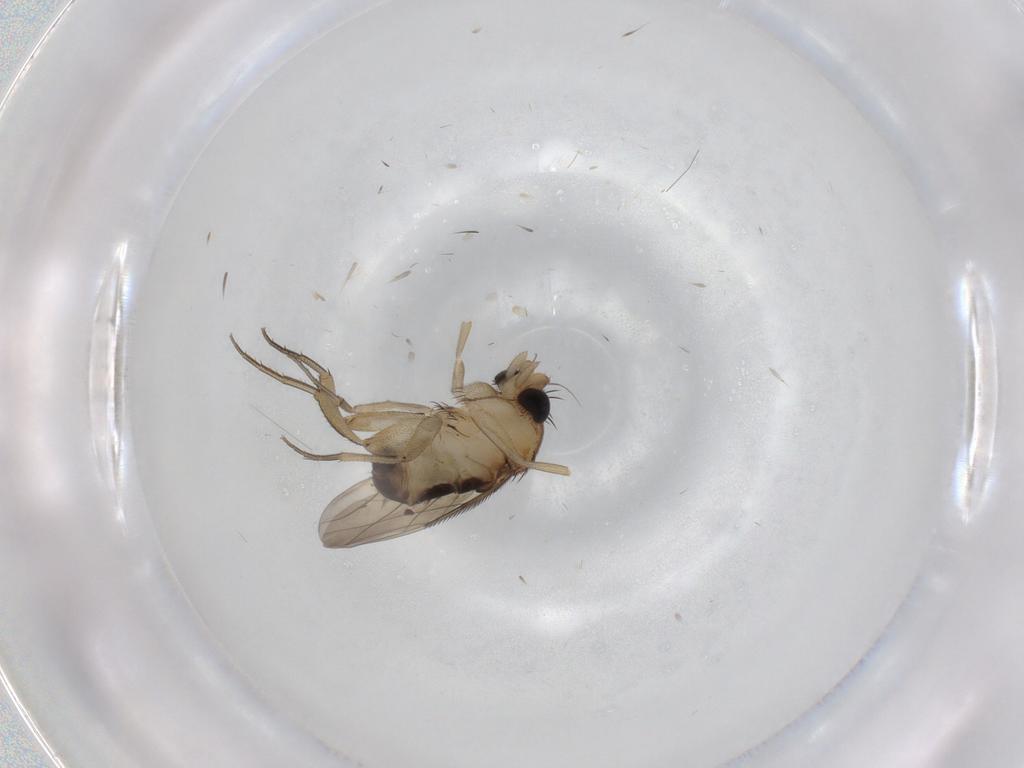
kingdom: Animalia
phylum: Arthropoda
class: Insecta
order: Diptera
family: Phoridae
